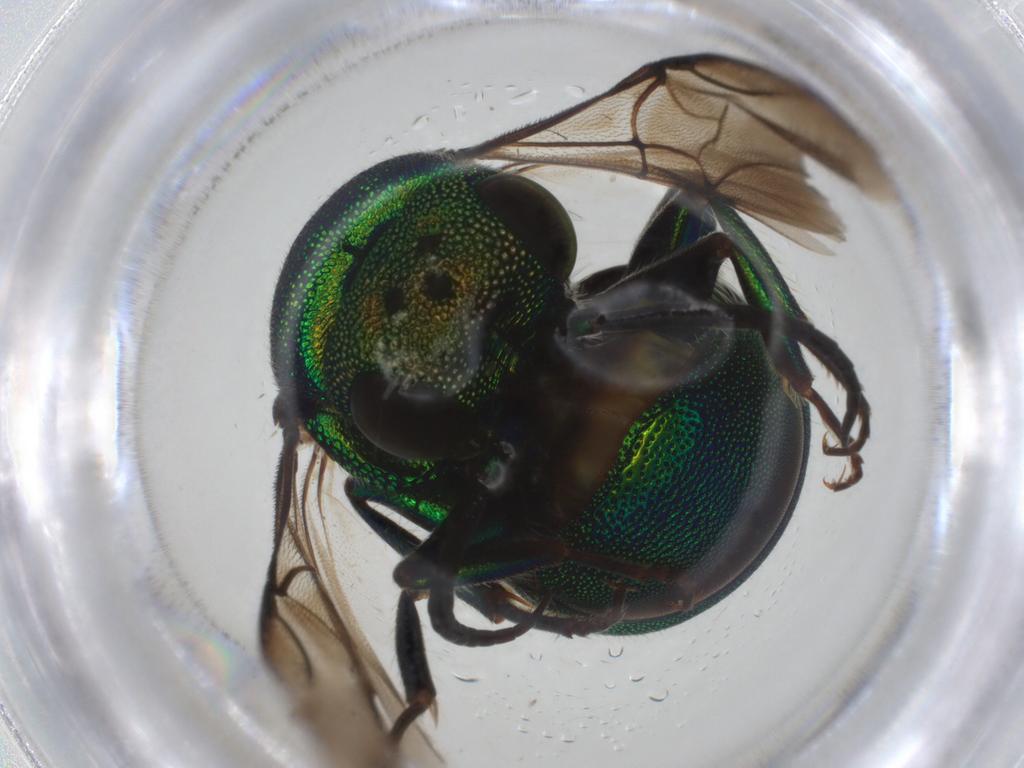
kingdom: Animalia
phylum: Arthropoda
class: Insecta
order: Hymenoptera
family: Chrysididae
